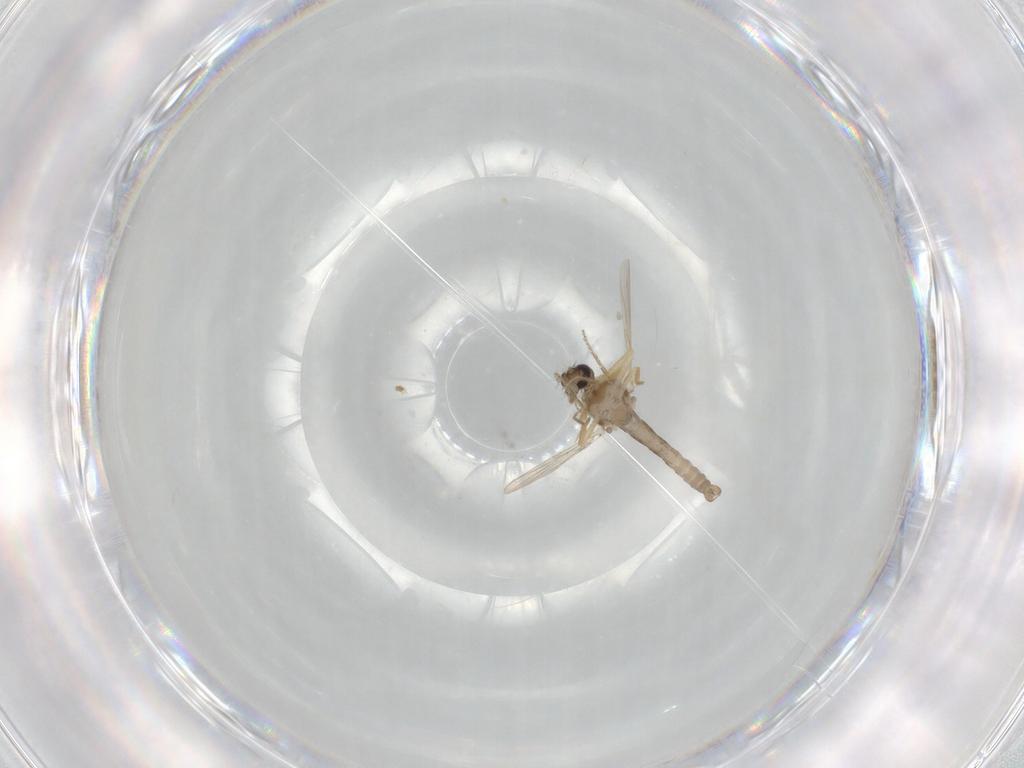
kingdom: Animalia
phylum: Arthropoda
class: Insecta
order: Diptera
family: Ceratopogonidae
